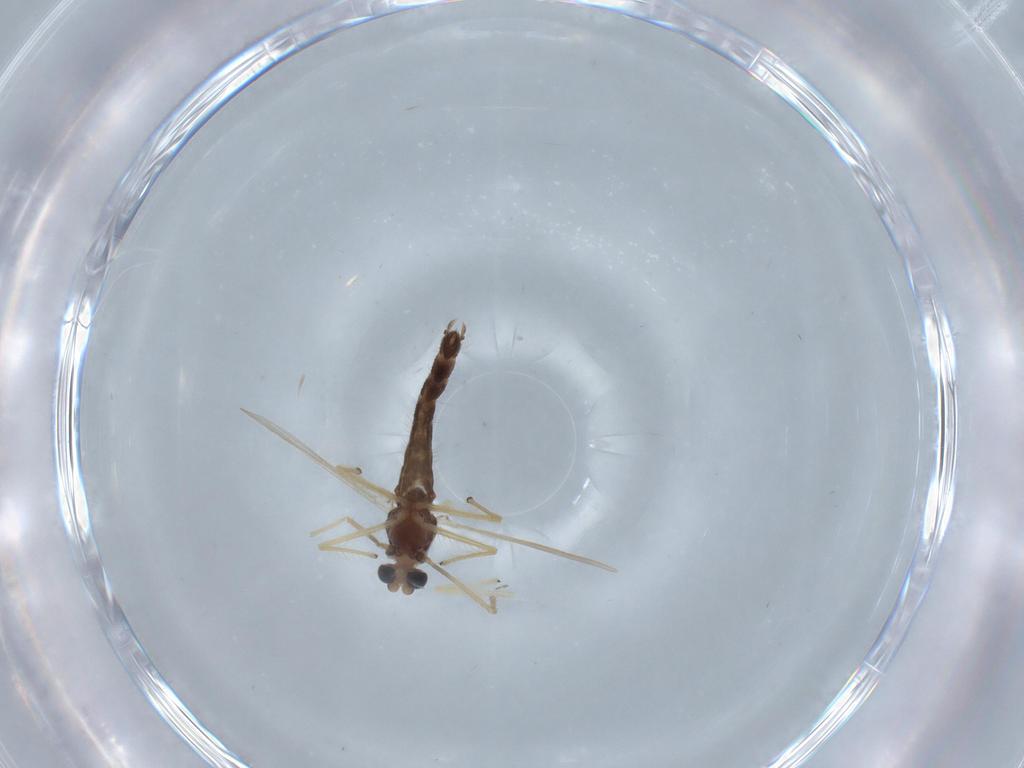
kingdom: Animalia
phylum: Arthropoda
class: Insecta
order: Diptera
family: Chironomidae
